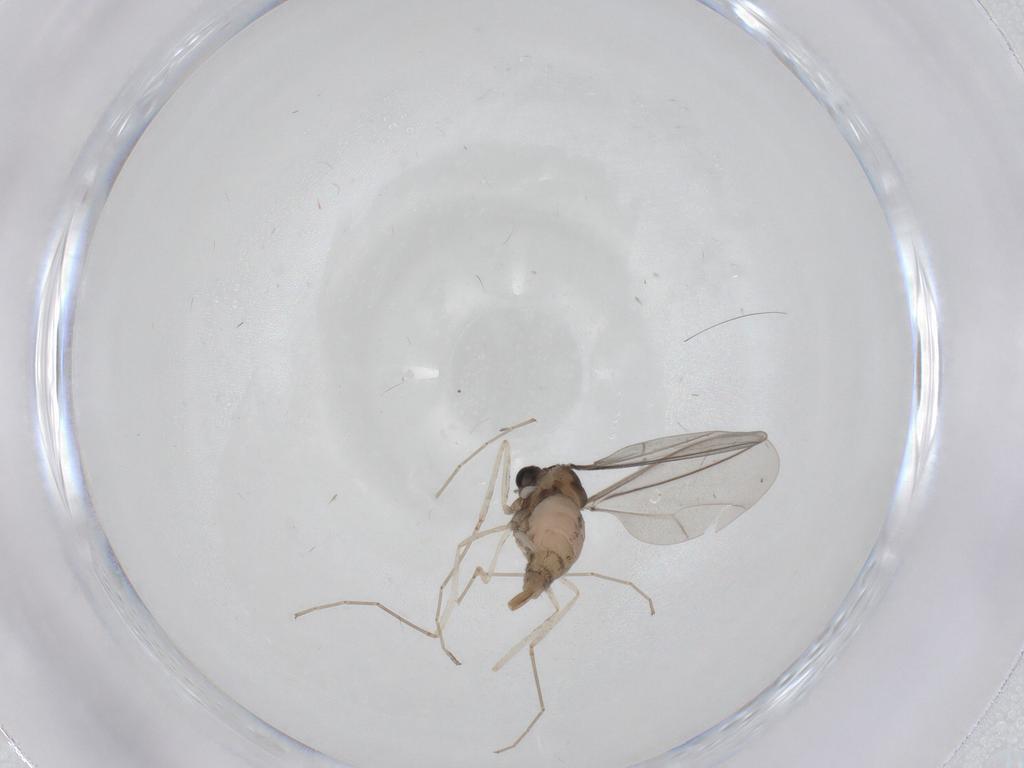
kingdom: Animalia
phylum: Arthropoda
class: Insecta
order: Diptera
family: Cecidomyiidae
